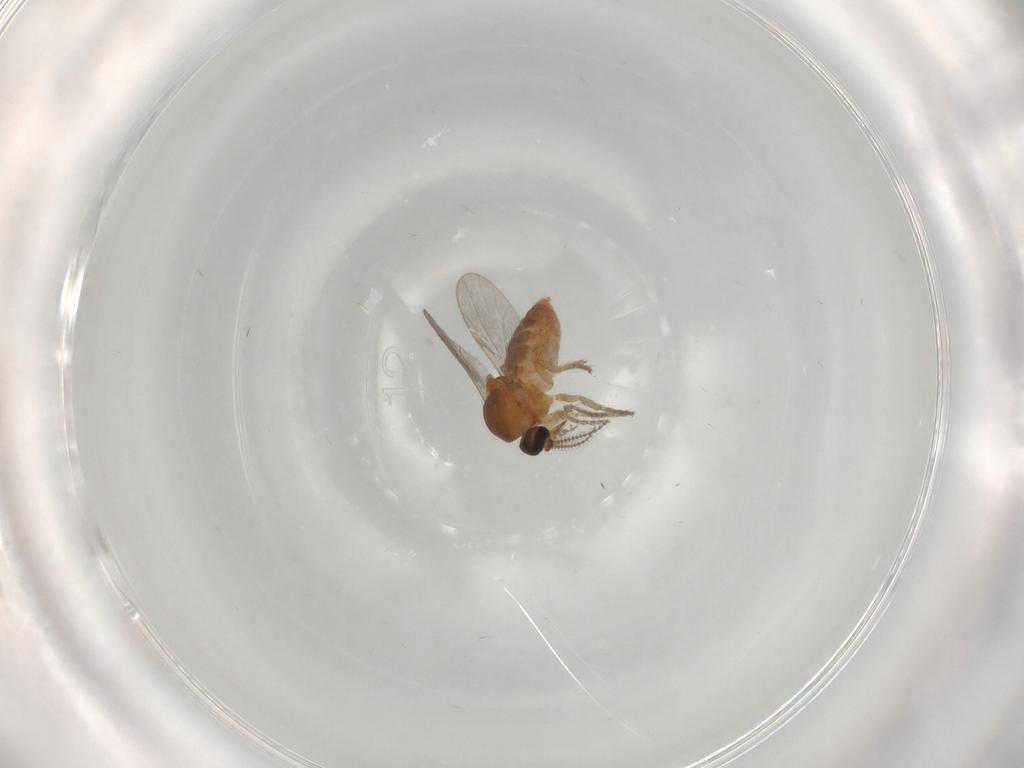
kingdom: Animalia
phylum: Arthropoda
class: Insecta
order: Diptera
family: Ceratopogonidae
